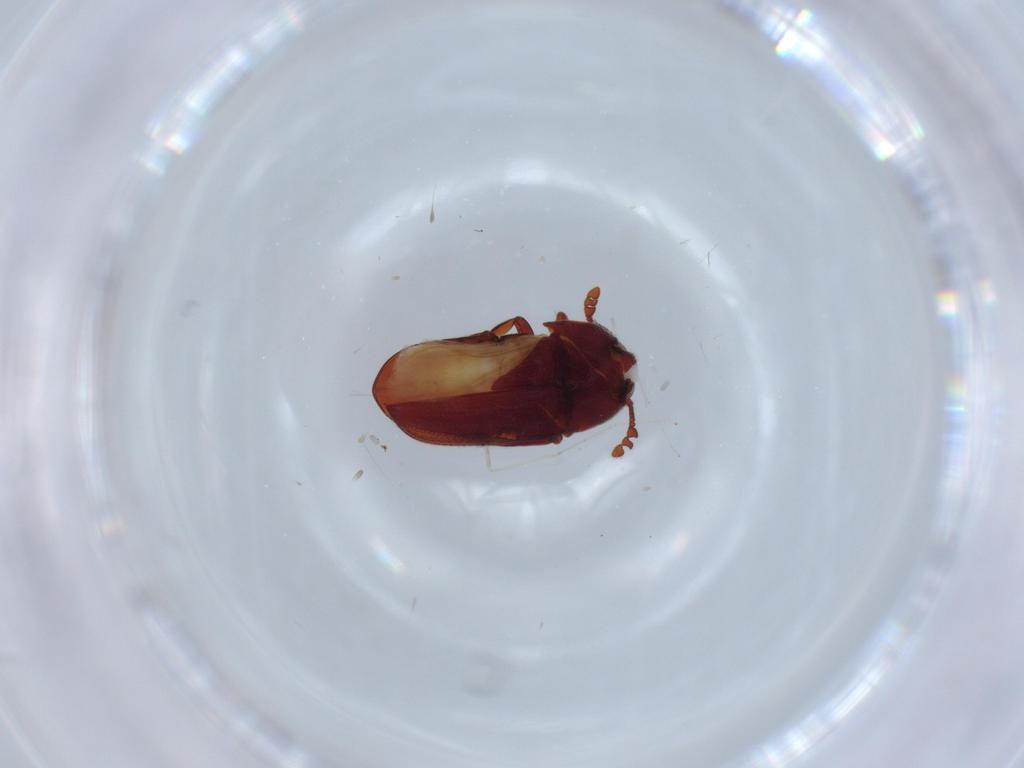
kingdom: Animalia
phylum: Arthropoda
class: Insecta
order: Coleoptera
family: Throscidae
